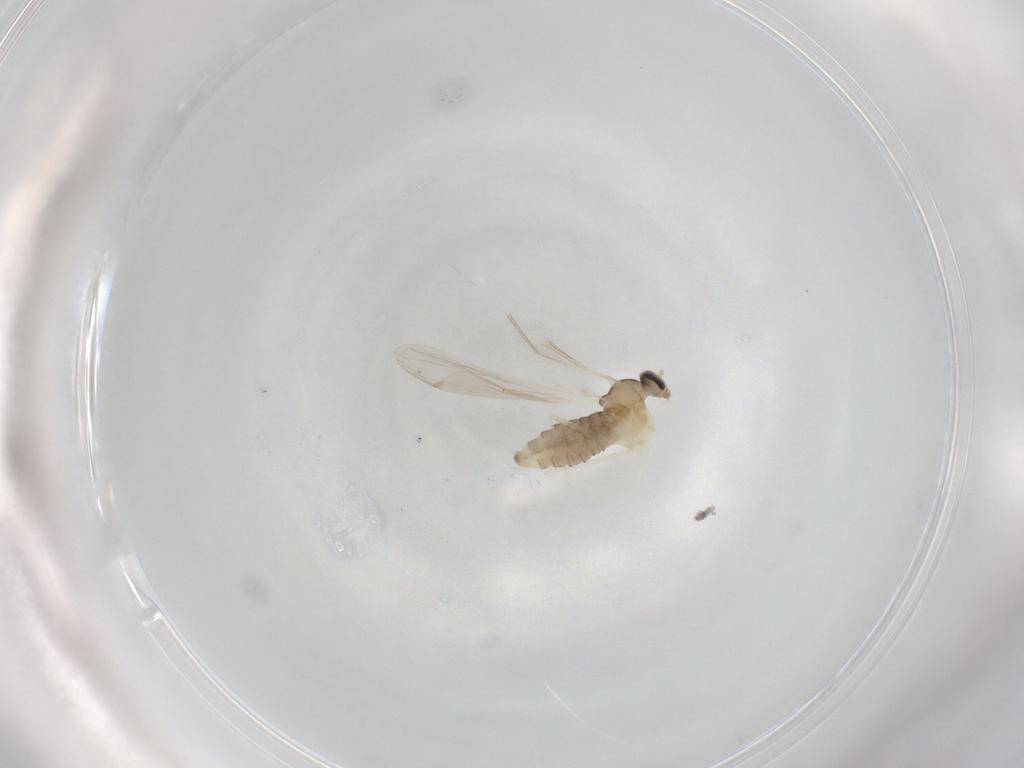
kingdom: Animalia
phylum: Arthropoda
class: Insecta
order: Diptera
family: Cecidomyiidae
